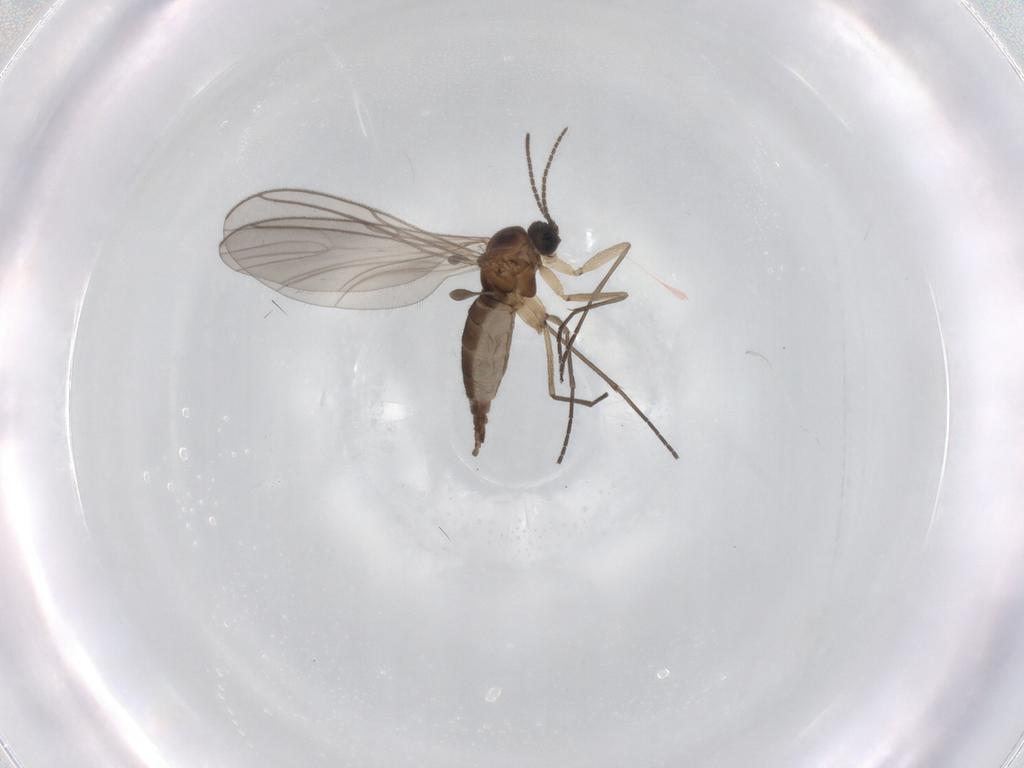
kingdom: Animalia
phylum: Arthropoda
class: Insecta
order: Diptera
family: Sciaridae
